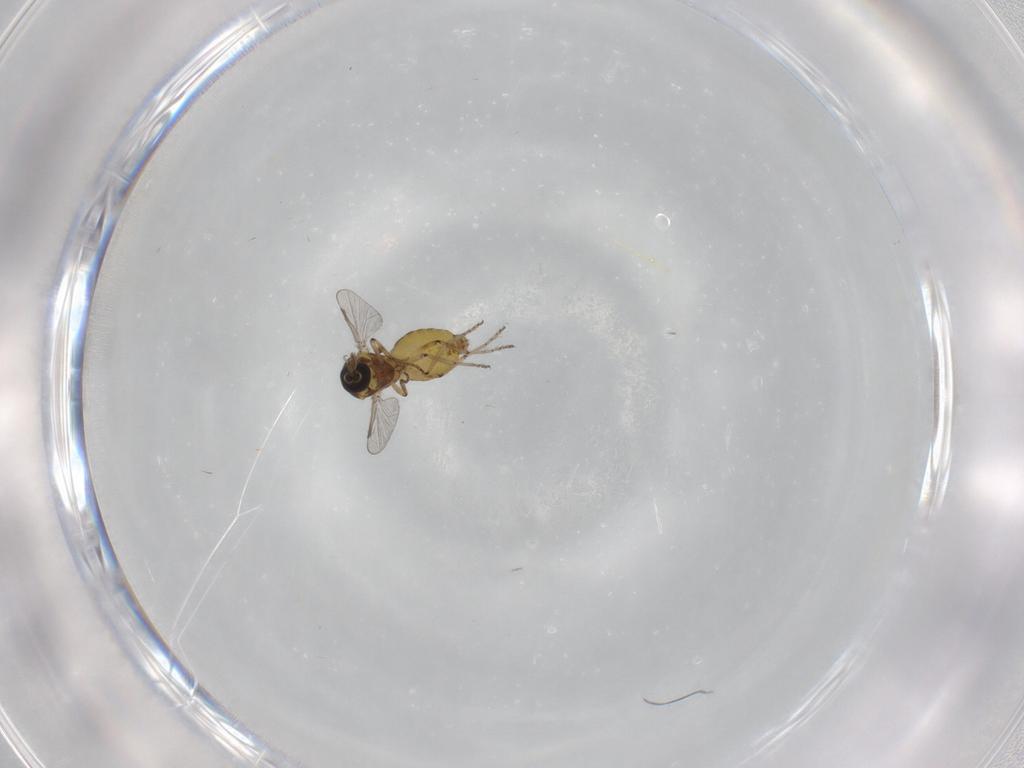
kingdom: Animalia
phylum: Arthropoda
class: Insecta
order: Diptera
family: Ceratopogonidae
